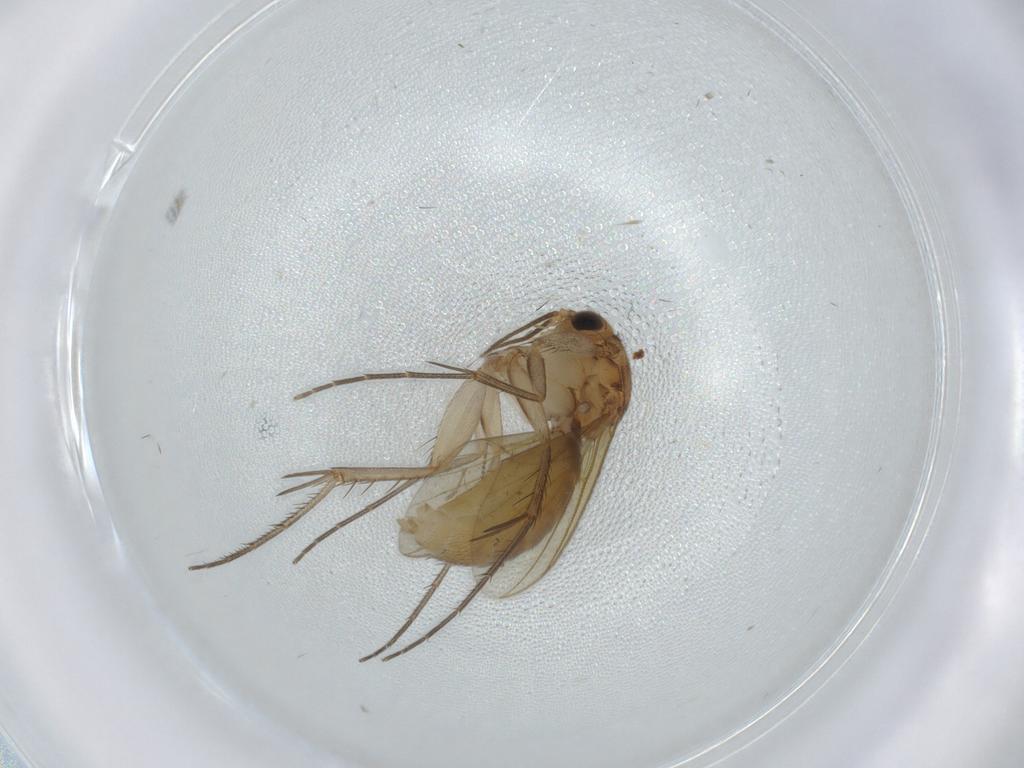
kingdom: Animalia
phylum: Arthropoda
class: Insecta
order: Diptera
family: Mycetophilidae
